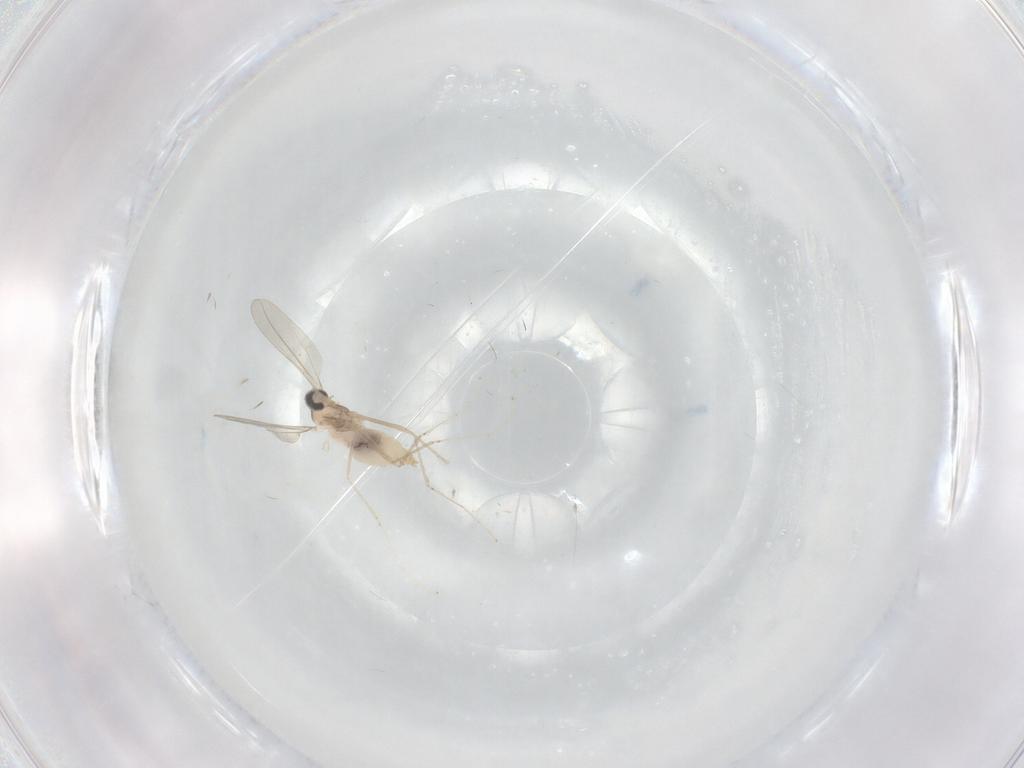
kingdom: Animalia
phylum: Arthropoda
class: Insecta
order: Diptera
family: Cecidomyiidae
